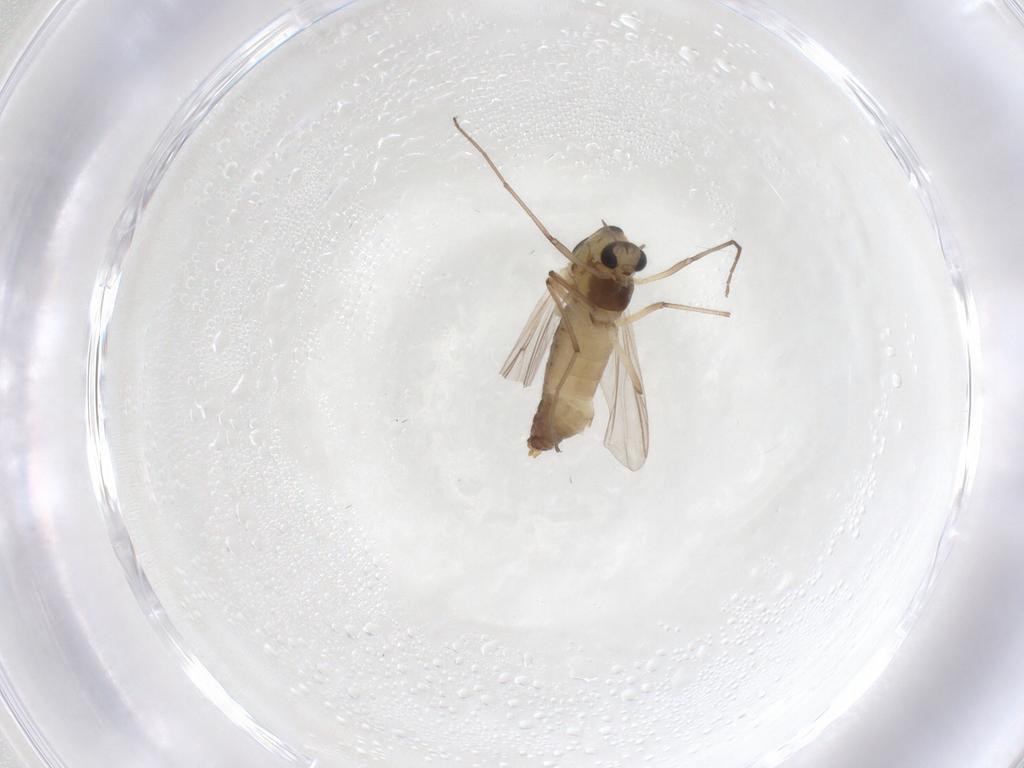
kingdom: Animalia
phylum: Arthropoda
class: Insecta
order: Diptera
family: Chironomidae
